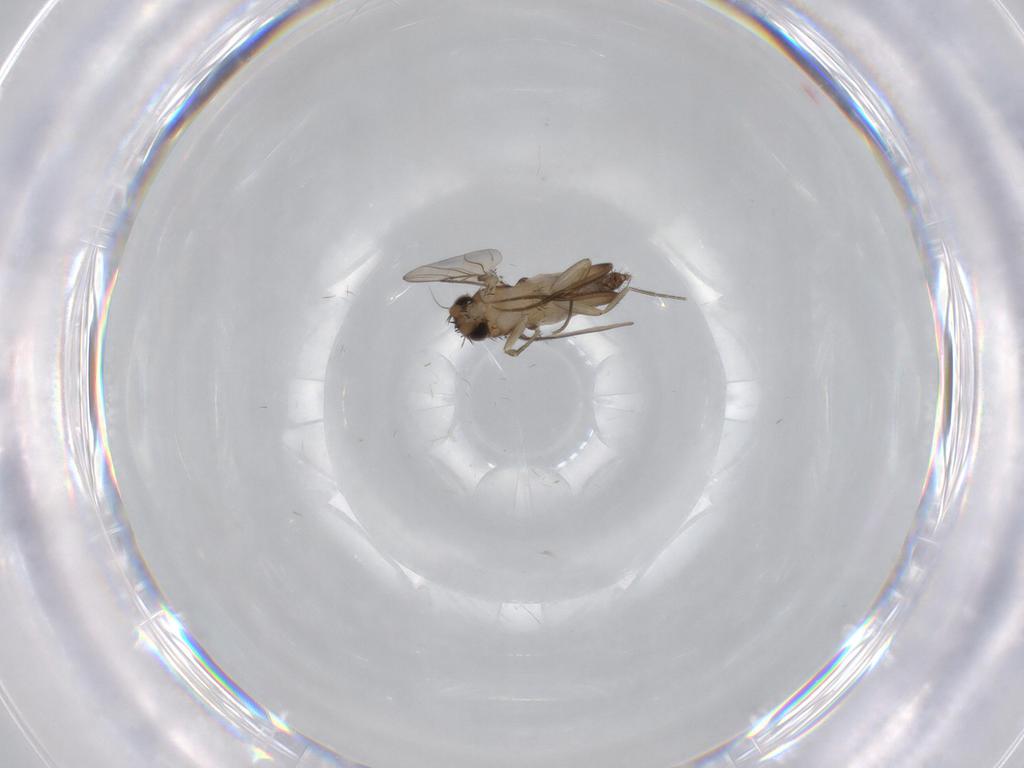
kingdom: Animalia
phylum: Arthropoda
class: Insecta
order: Diptera
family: Phoridae
